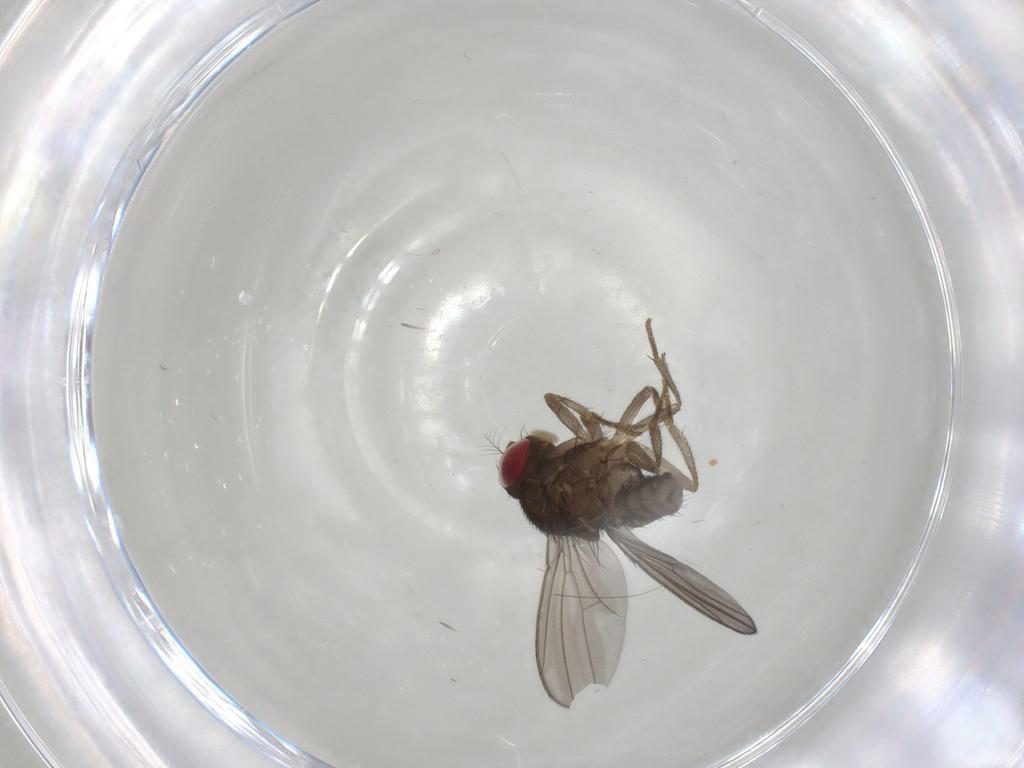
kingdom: Animalia
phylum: Arthropoda
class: Insecta
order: Diptera
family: Drosophilidae
